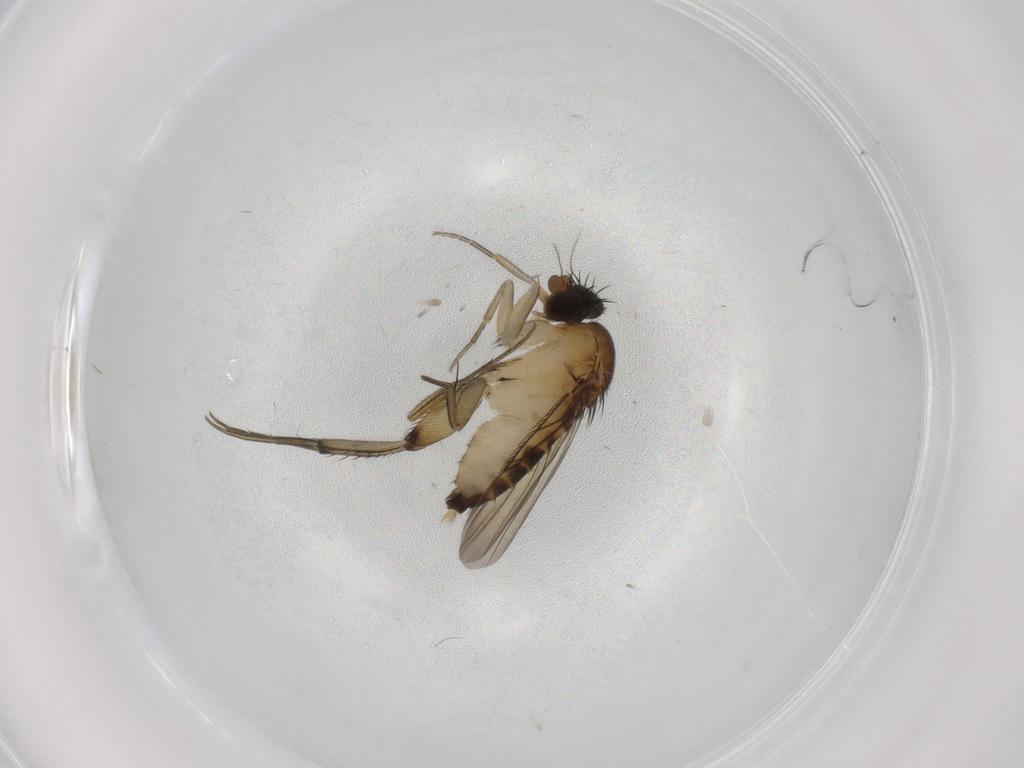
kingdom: Animalia
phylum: Arthropoda
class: Insecta
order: Diptera
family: Phoridae
